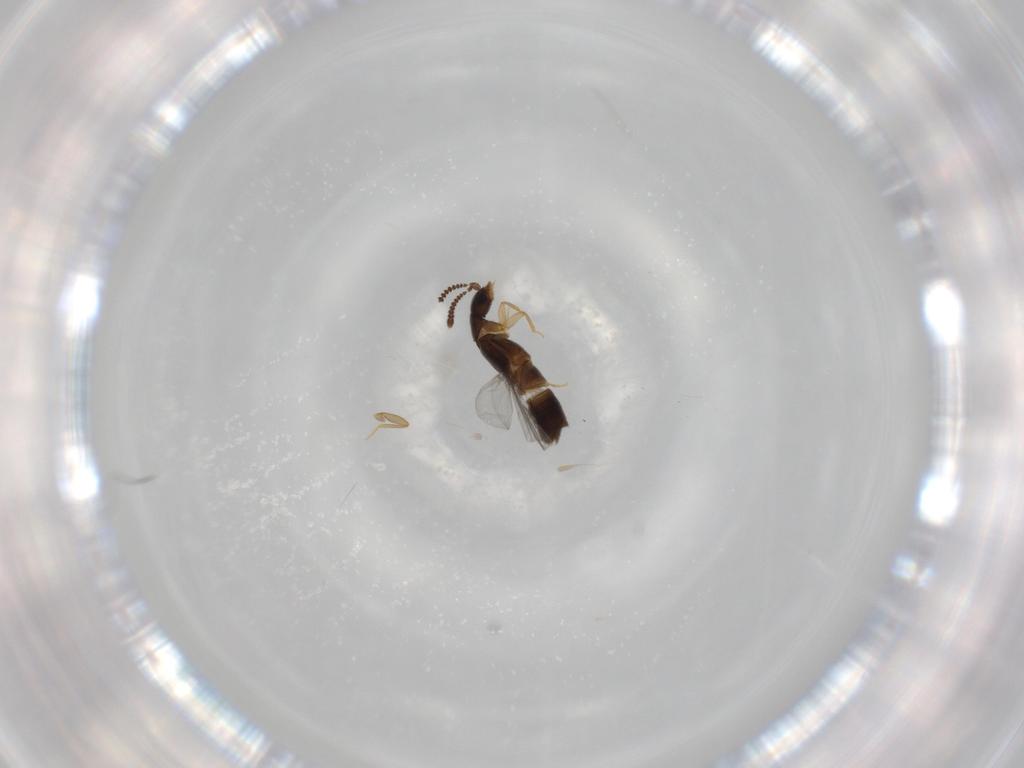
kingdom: Animalia
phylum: Arthropoda
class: Insecta
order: Coleoptera
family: Staphylinidae
